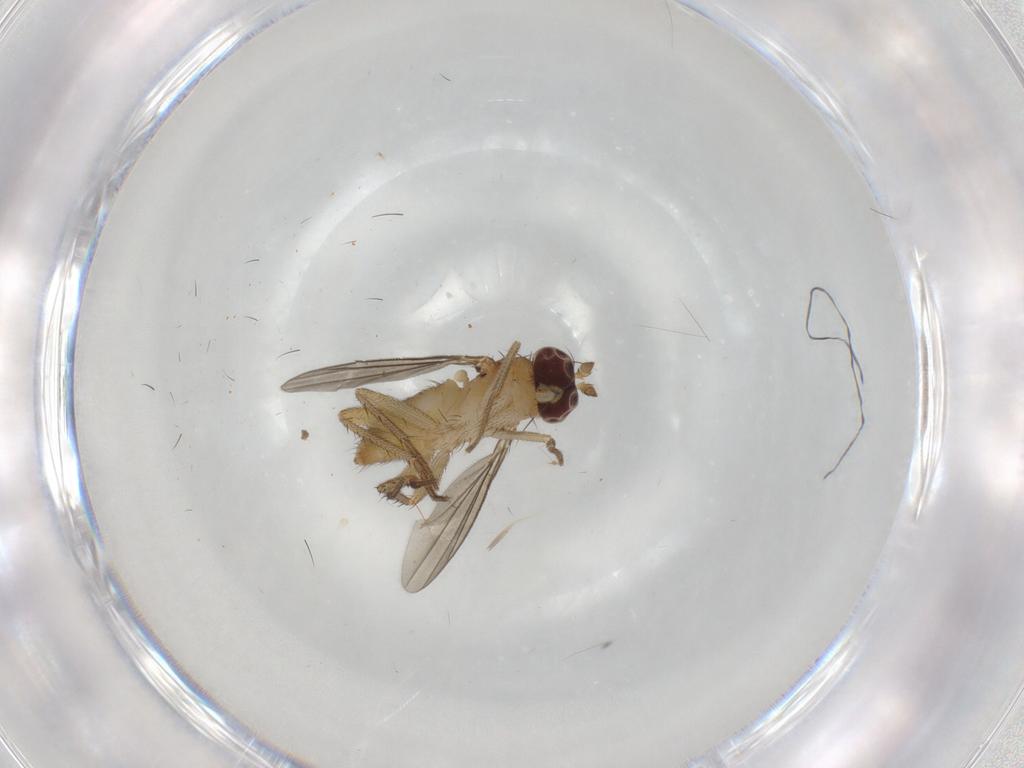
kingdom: Animalia
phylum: Arthropoda
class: Insecta
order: Diptera
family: Dolichopodidae
